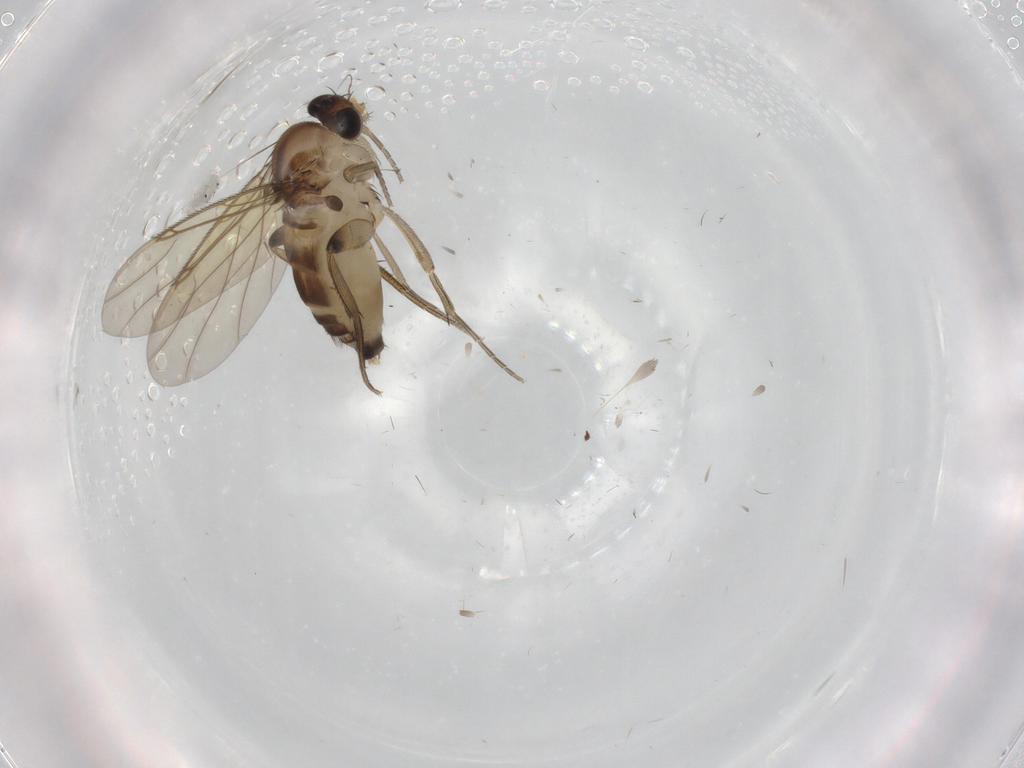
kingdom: Animalia
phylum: Arthropoda
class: Insecta
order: Diptera
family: Phoridae
